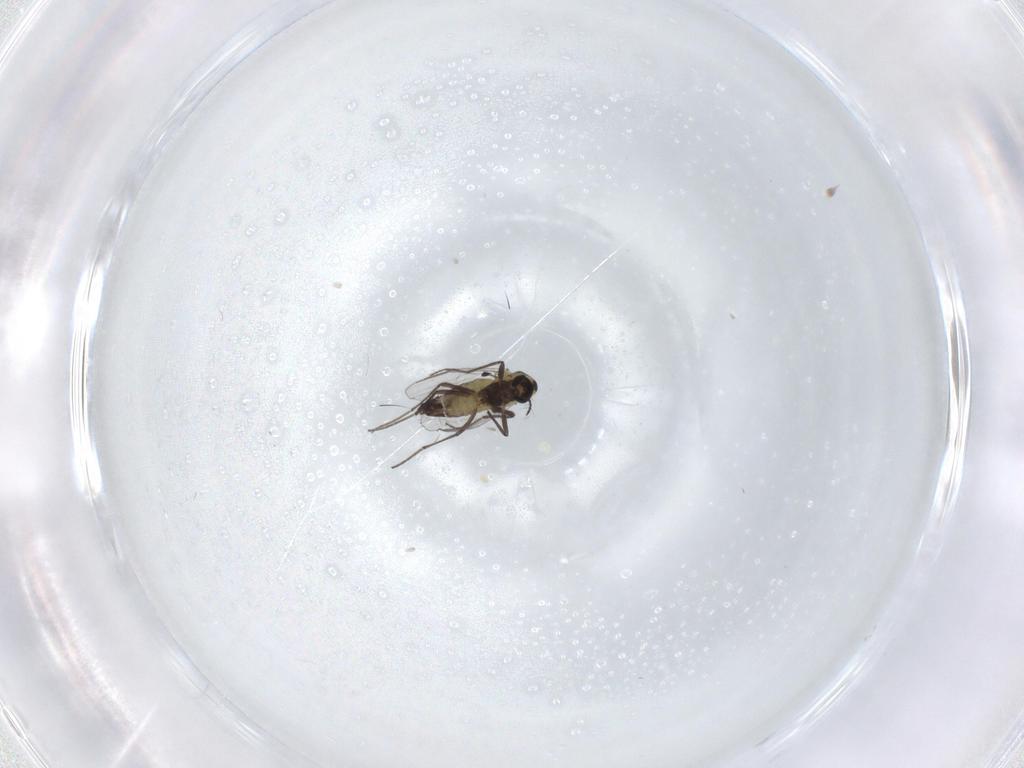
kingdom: Animalia
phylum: Arthropoda
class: Insecta
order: Diptera
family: Chironomidae
